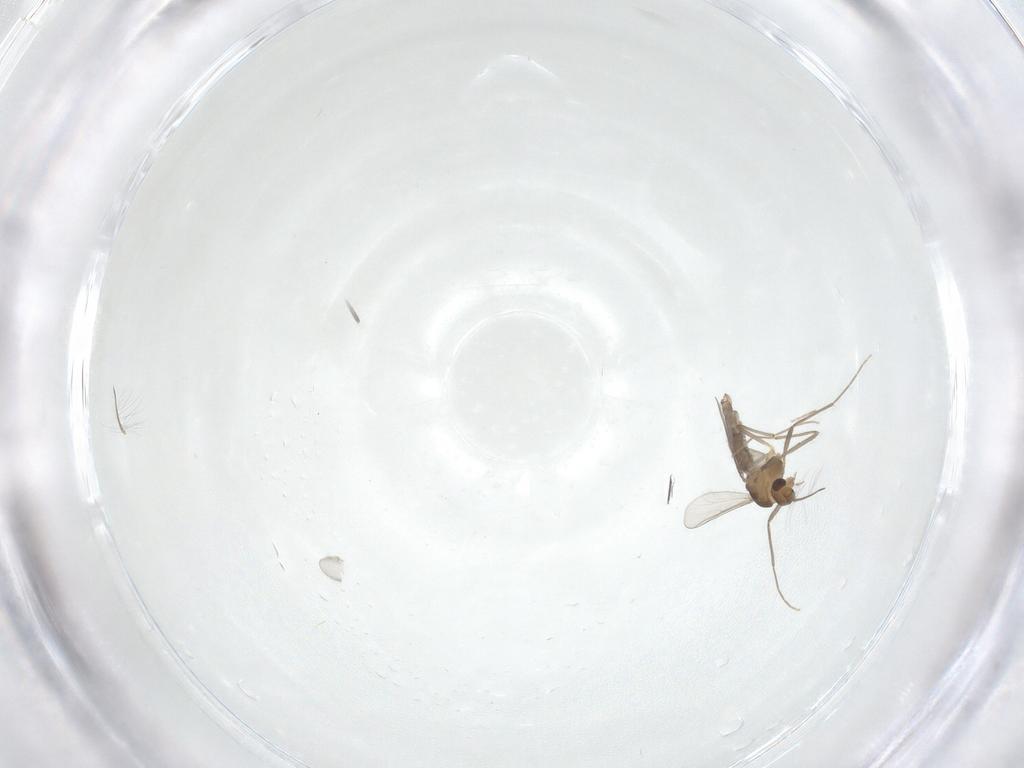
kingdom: Animalia
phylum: Arthropoda
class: Insecta
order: Diptera
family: Chironomidae
